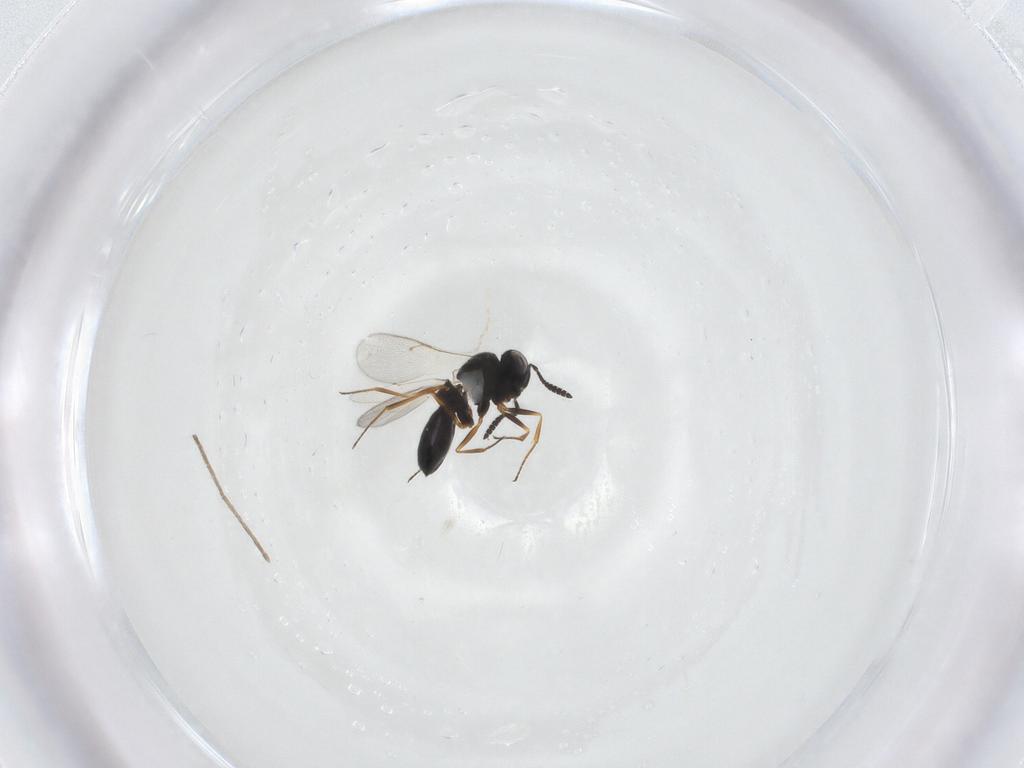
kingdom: Animalia
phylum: Arthropoda
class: Insecta
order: Hymenoptera
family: Scelionidae
